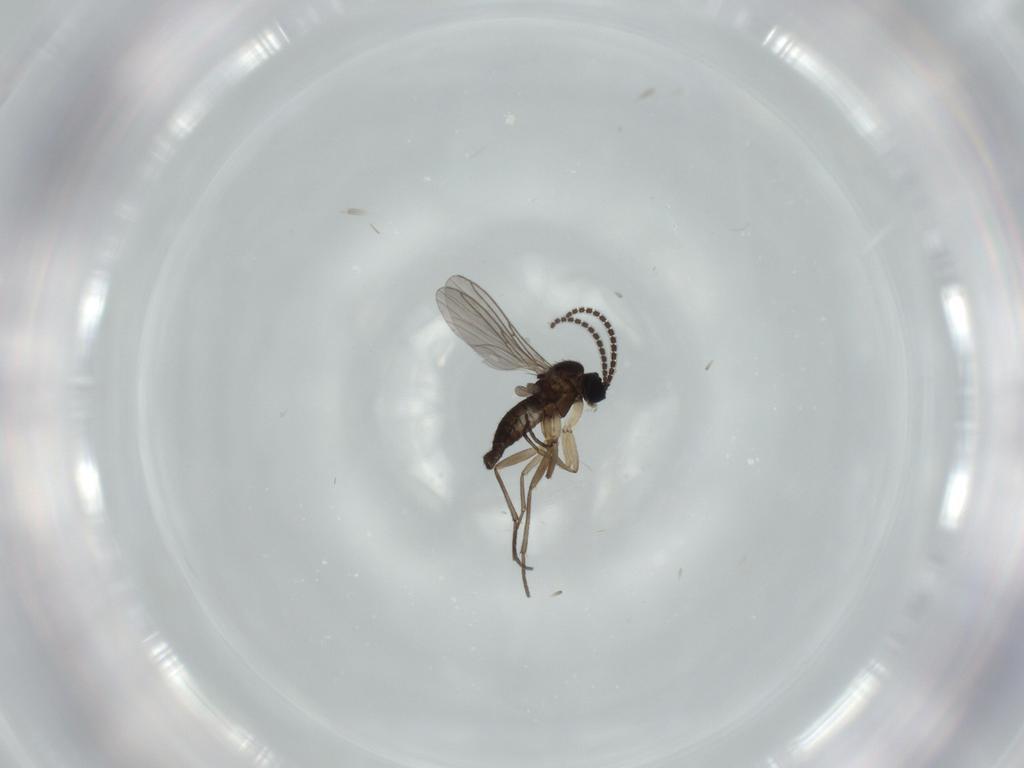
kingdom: Animalia
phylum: Arthropoda
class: Insecta
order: Diptera
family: Sciaridae
